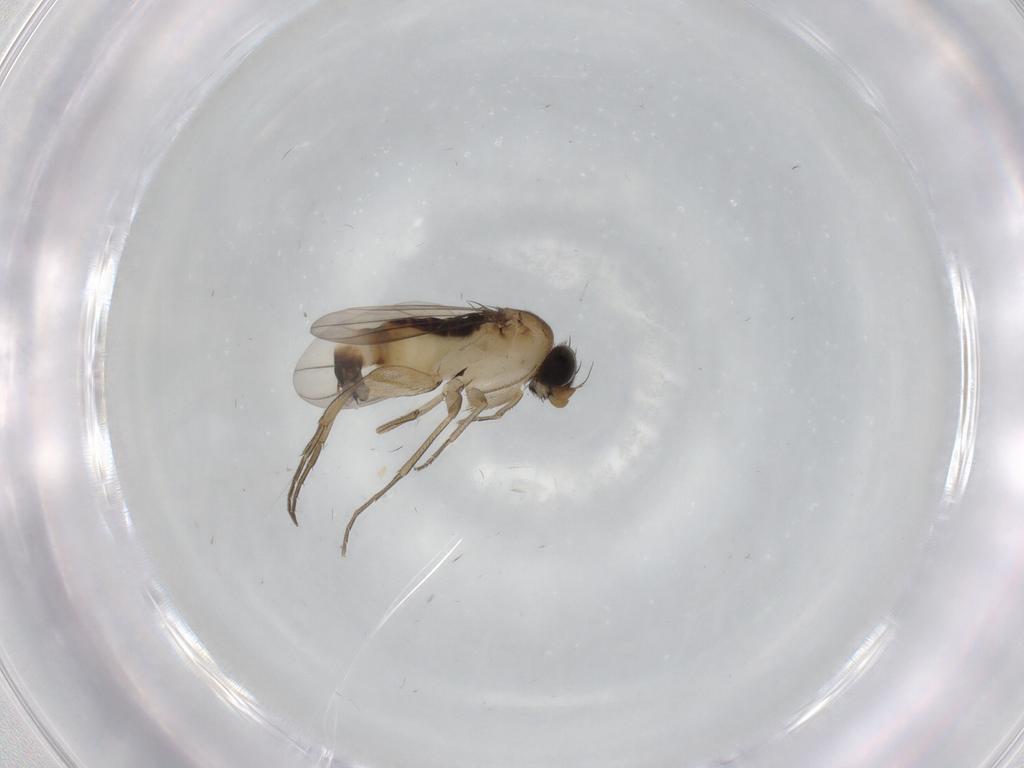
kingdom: Animalia
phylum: Arthropoda
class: Insecta
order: Diptera
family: Phoridae
